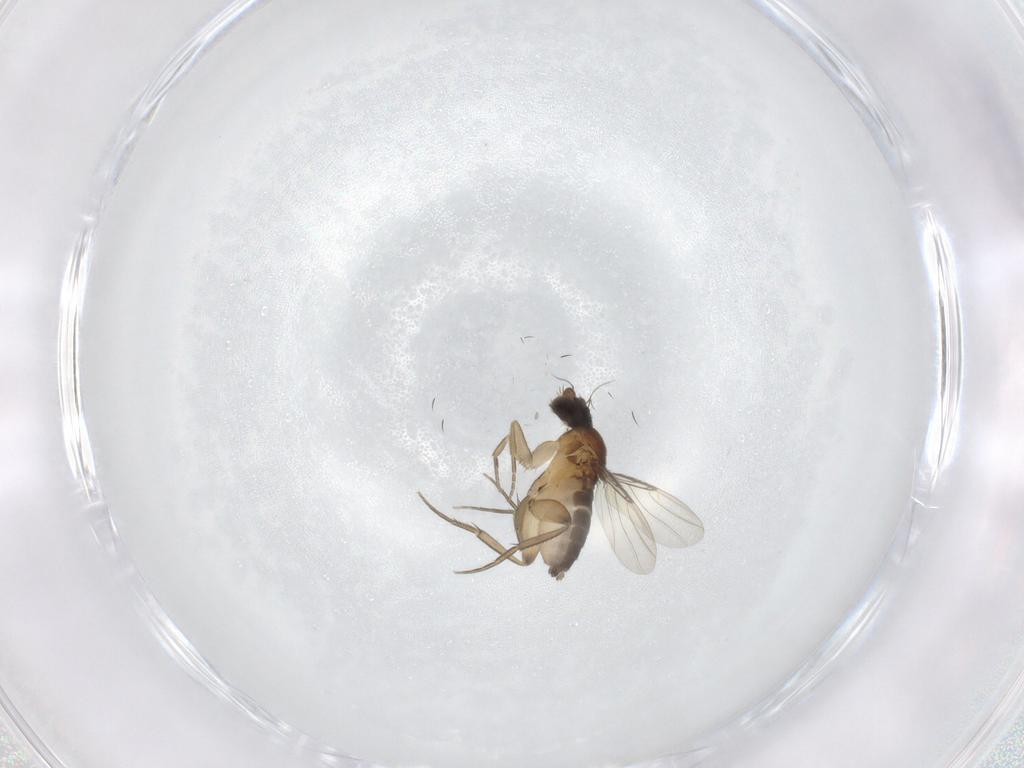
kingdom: Animalia
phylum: Arthropoda
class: Insecta
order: Diptera
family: Phoridae
